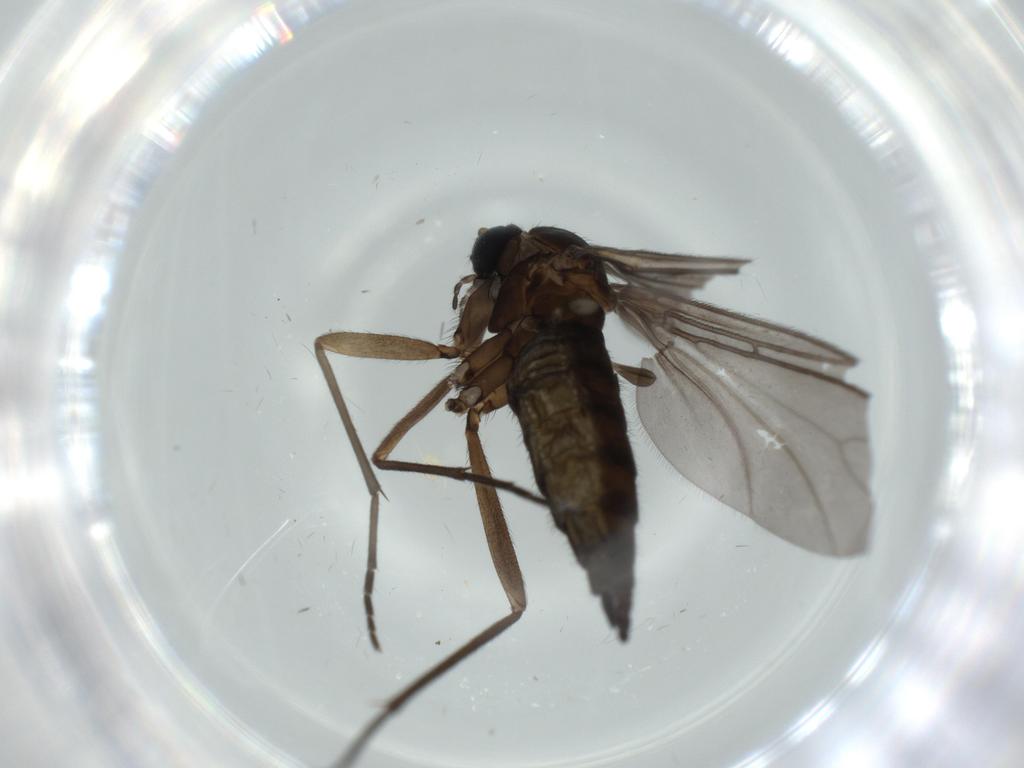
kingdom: Animalia
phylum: Arthropoda
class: Insecta
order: Diptera
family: Sciaridae
